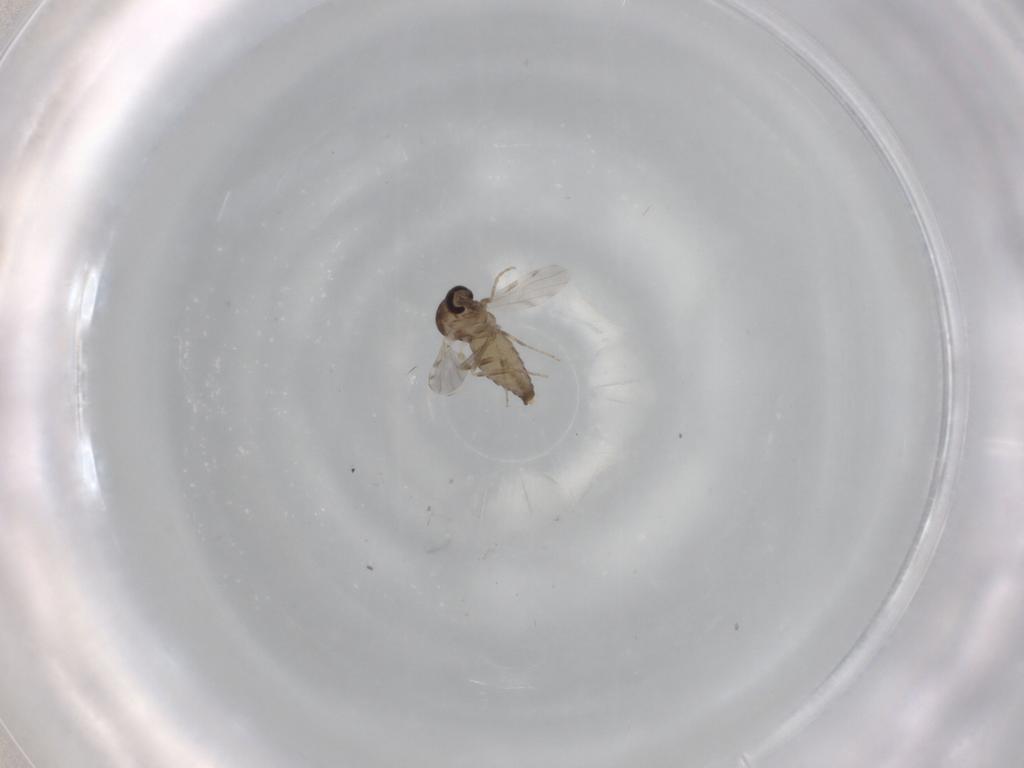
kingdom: Animalia
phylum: Arthropoda
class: Insecta
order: Diptera
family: Ceratopogonidae
